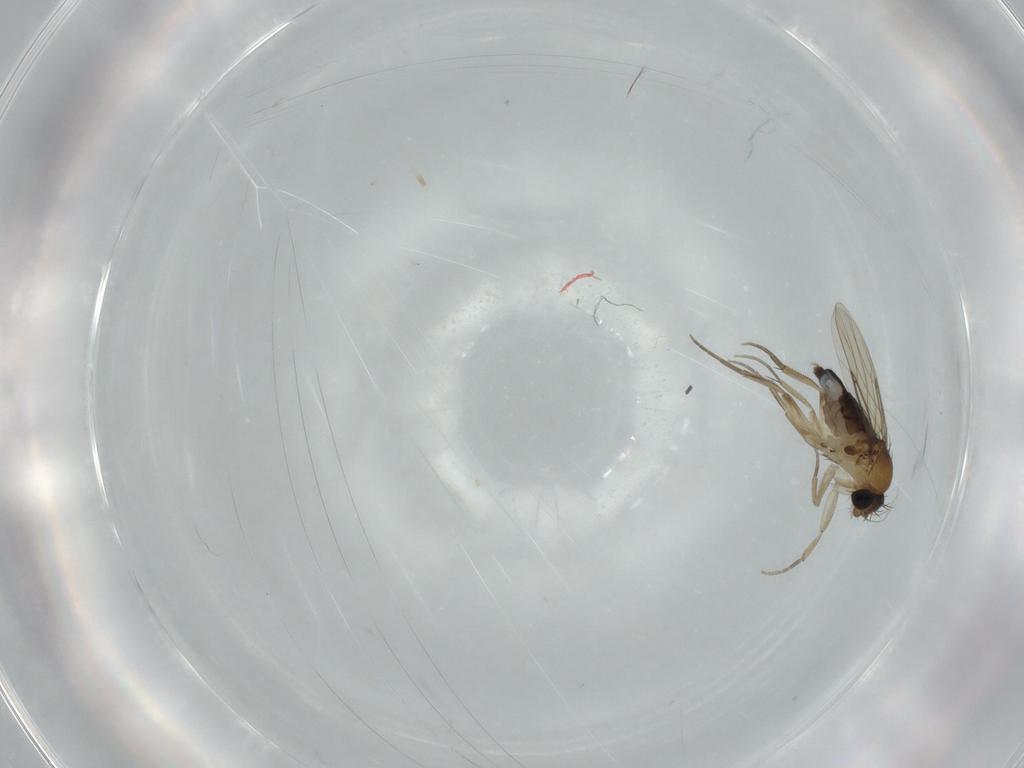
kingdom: Animalia
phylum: Arthropoda
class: Insecta
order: Diptera
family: Phoridae
